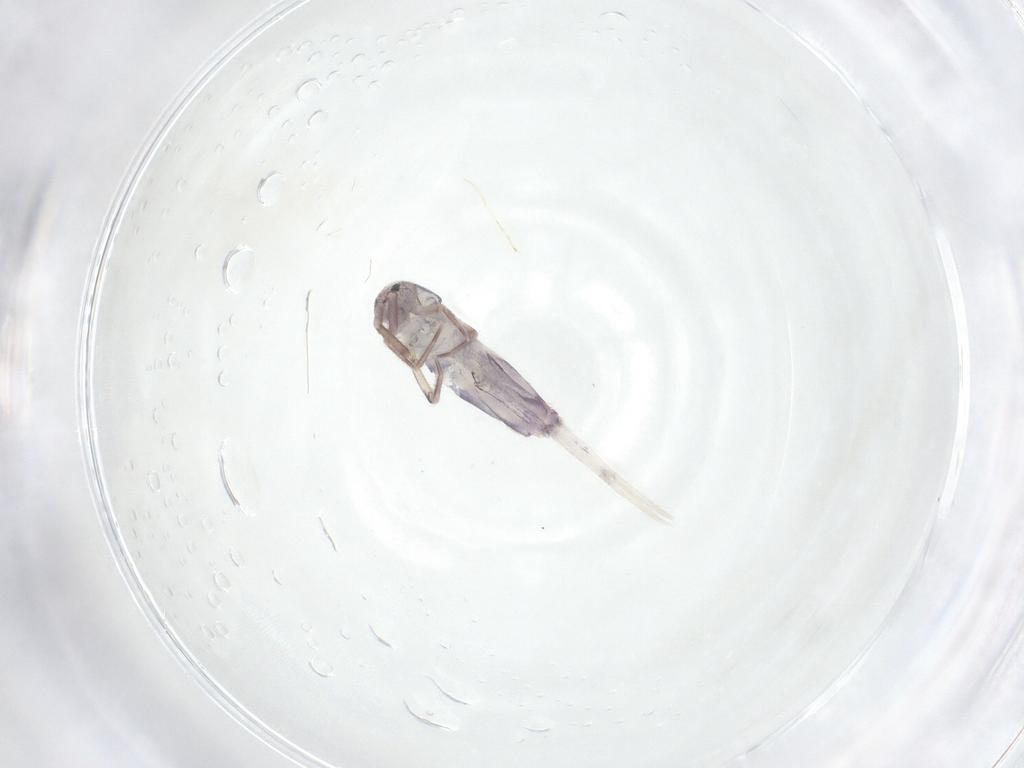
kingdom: Animalia
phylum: Arthropoda
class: Collembola
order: Entomobryomorpha
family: Entomobryidae
